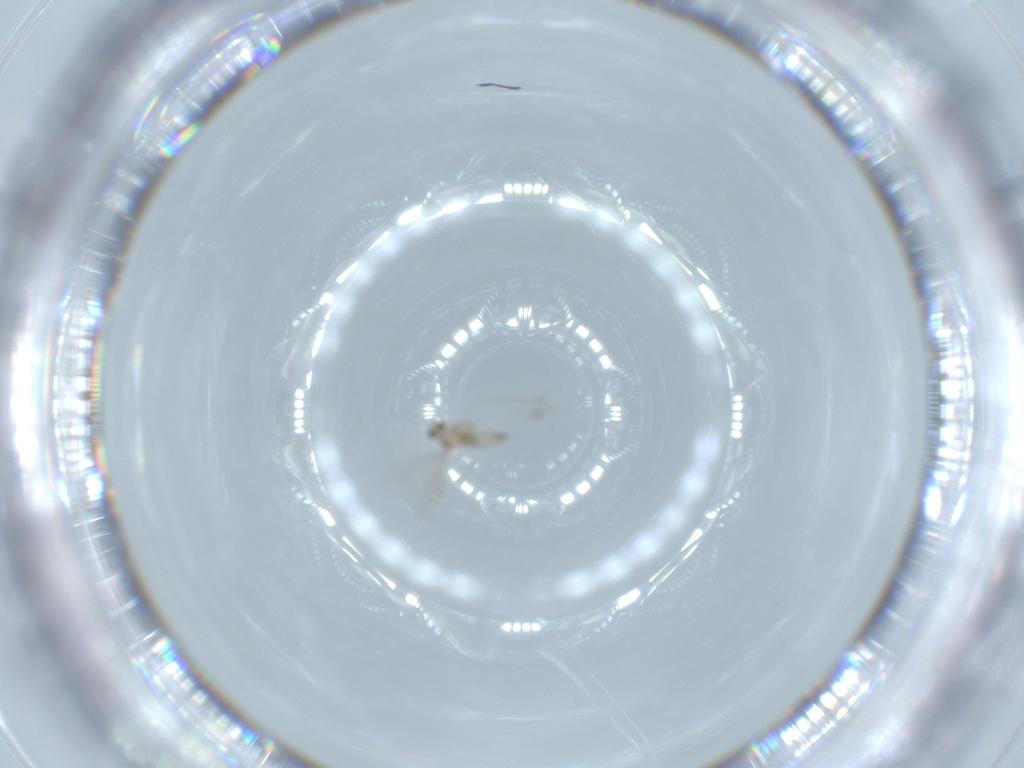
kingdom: Animalia
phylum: Arthropoda
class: Insecta
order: Diptera
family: Cecidomyiidae
